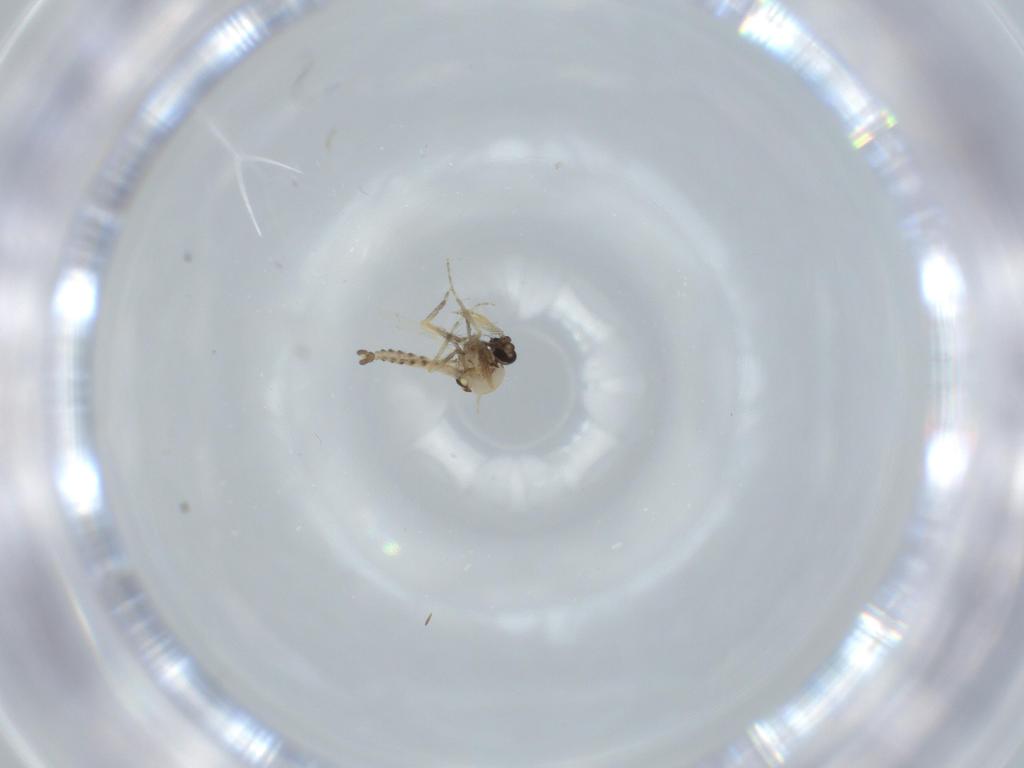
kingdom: Animalia
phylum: Arthropoda
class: Insecta
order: Diptera
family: Ceratopogonidae
